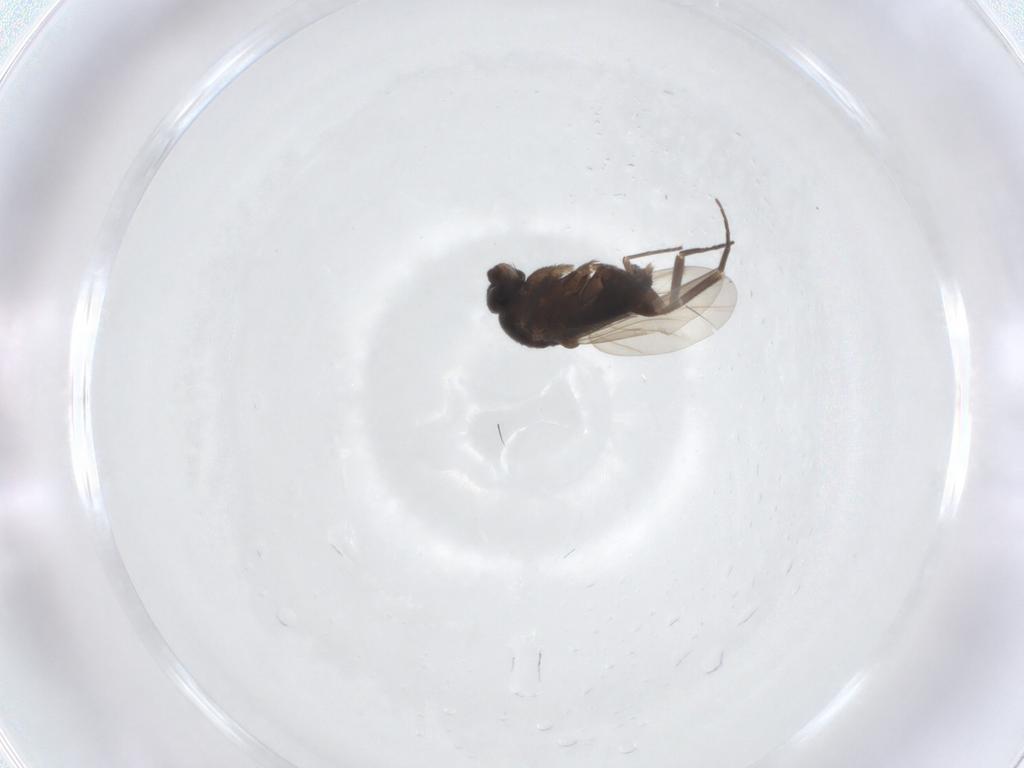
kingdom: Animalia
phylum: Arthropoda
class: Insecta
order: Diptera
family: Phoridae
